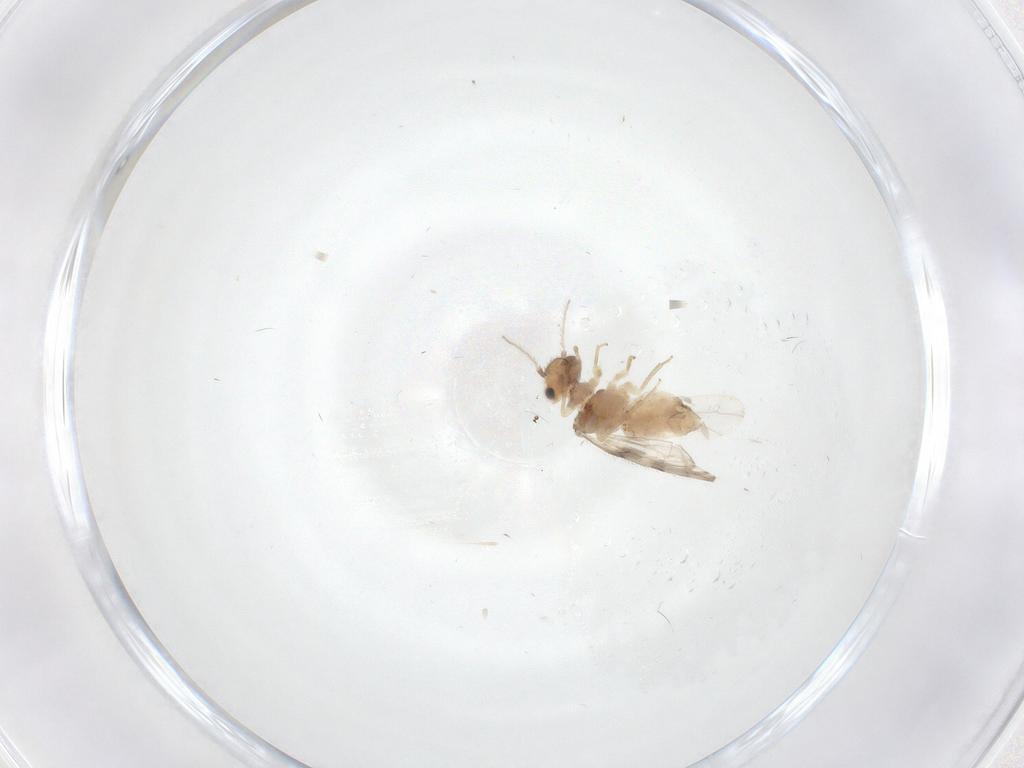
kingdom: Animalia
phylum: Arthropoda
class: Insecta
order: Psocodea
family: Ectopsocidae
